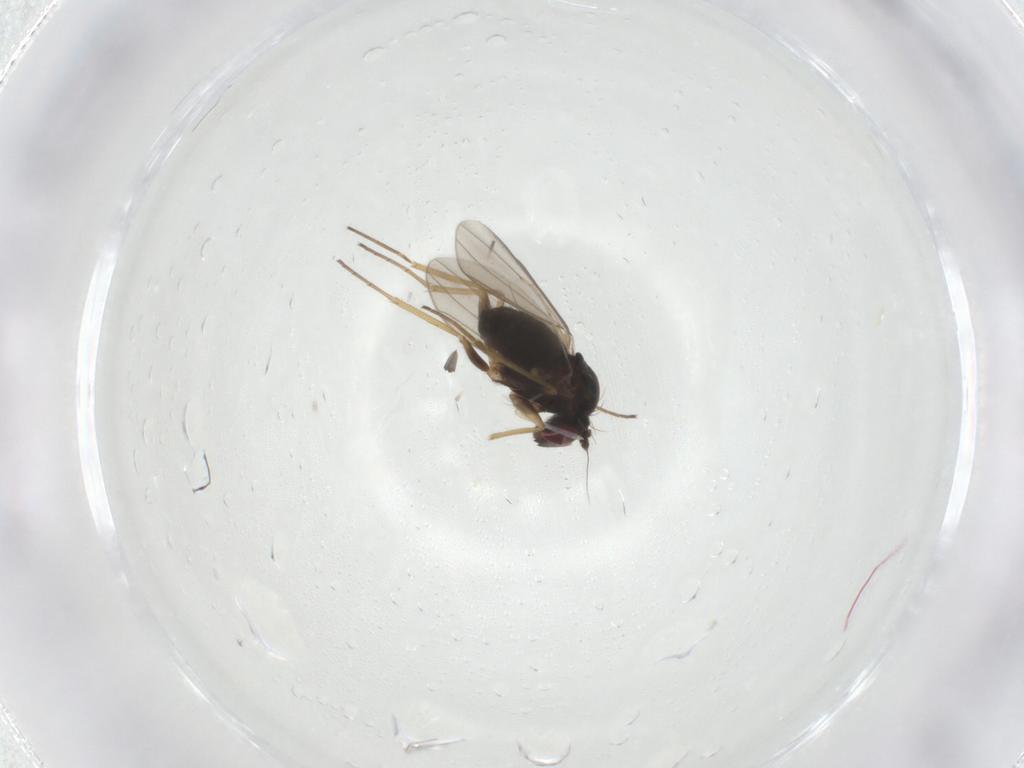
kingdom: Animalia
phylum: Arthropoda
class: Insecta
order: Diptera
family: Dolichopodidae
